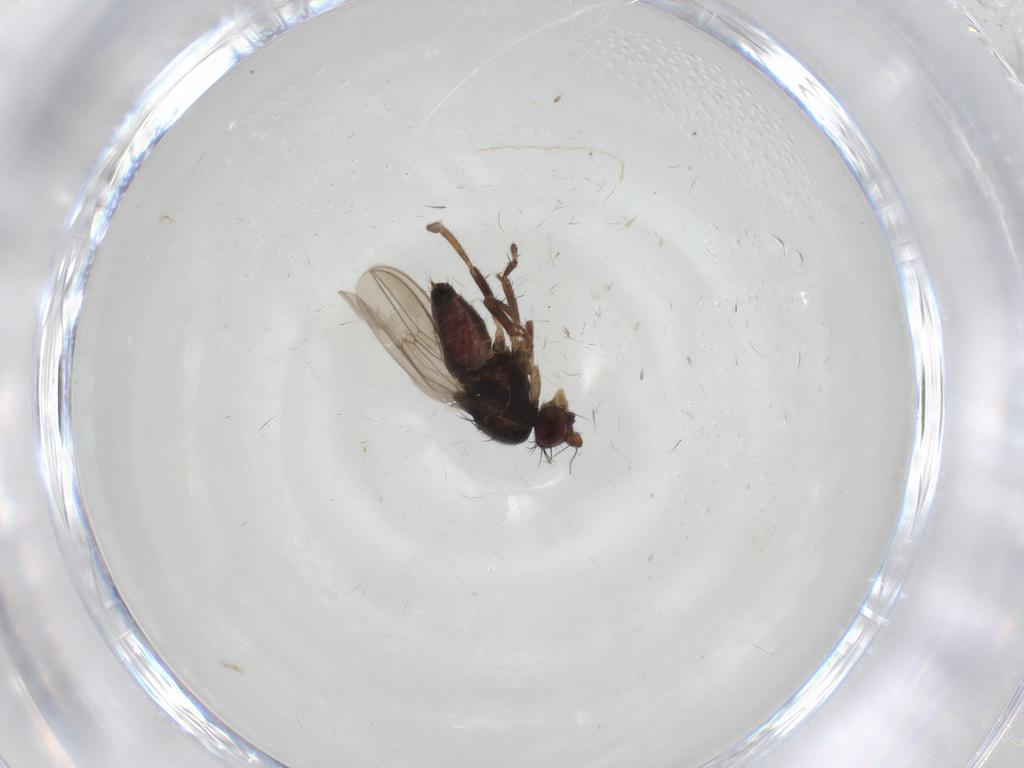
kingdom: Animalia
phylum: Arthropoda
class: Insecta
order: Diptera
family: Sphaeroceridae
